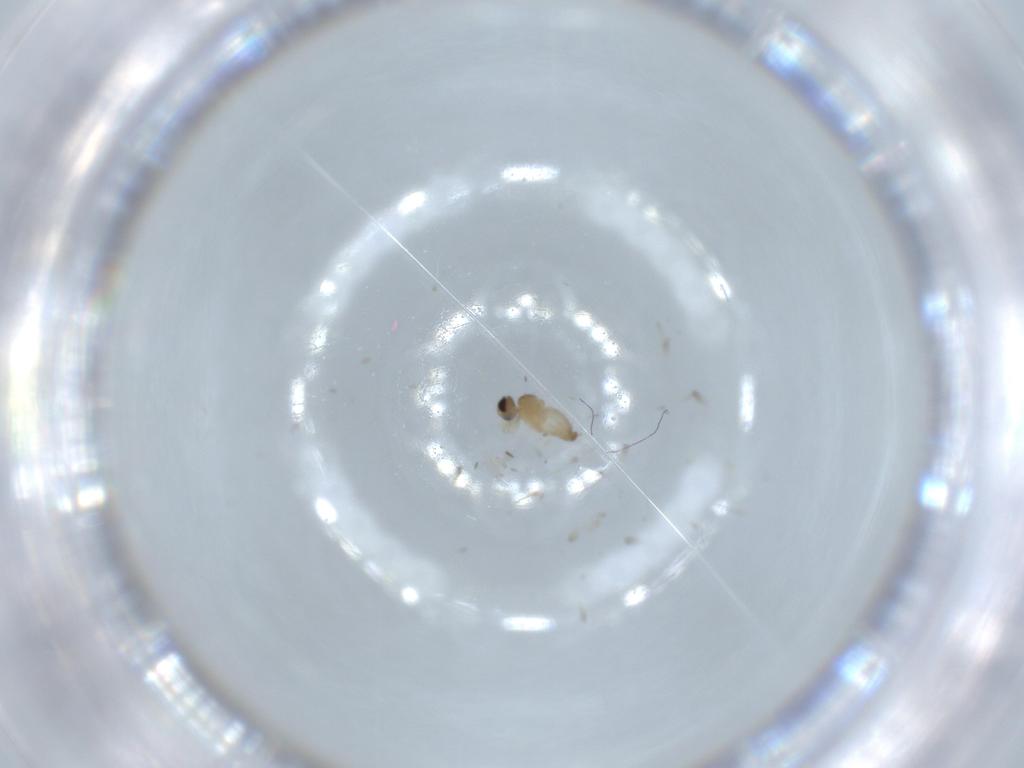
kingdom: Animalia
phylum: Arthropoda
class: Insecta
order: Diptera
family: Cecidomyiidae
